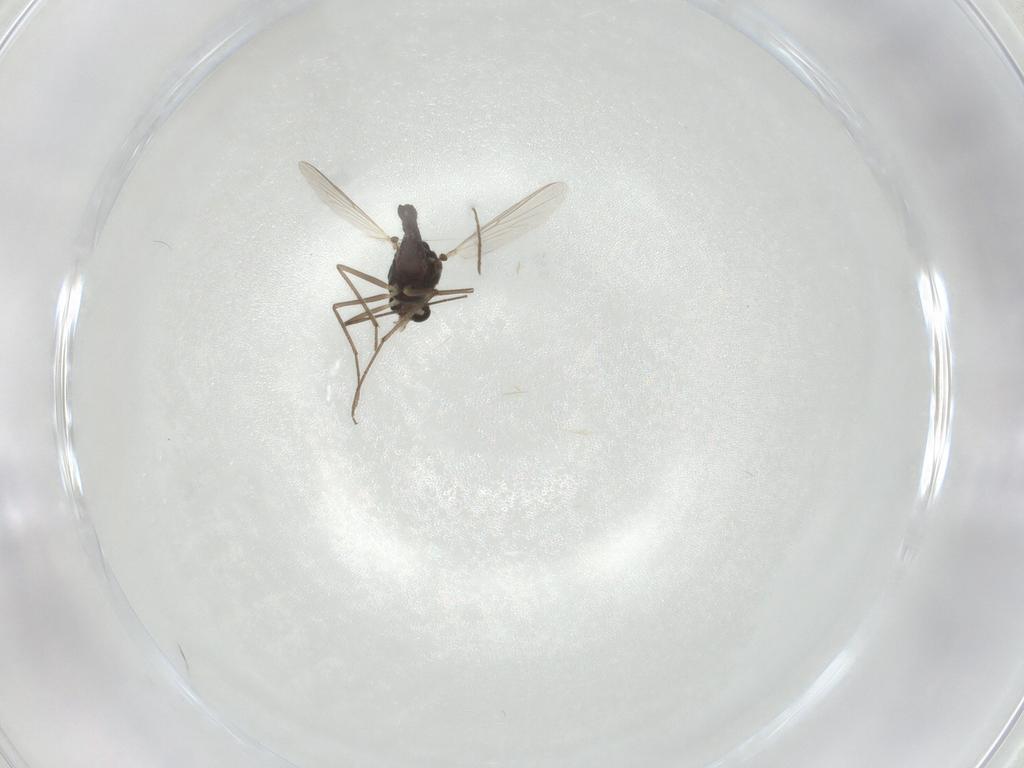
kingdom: Animalia
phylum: Arthropoda
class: Insecta
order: Diptera
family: Chironomidae
